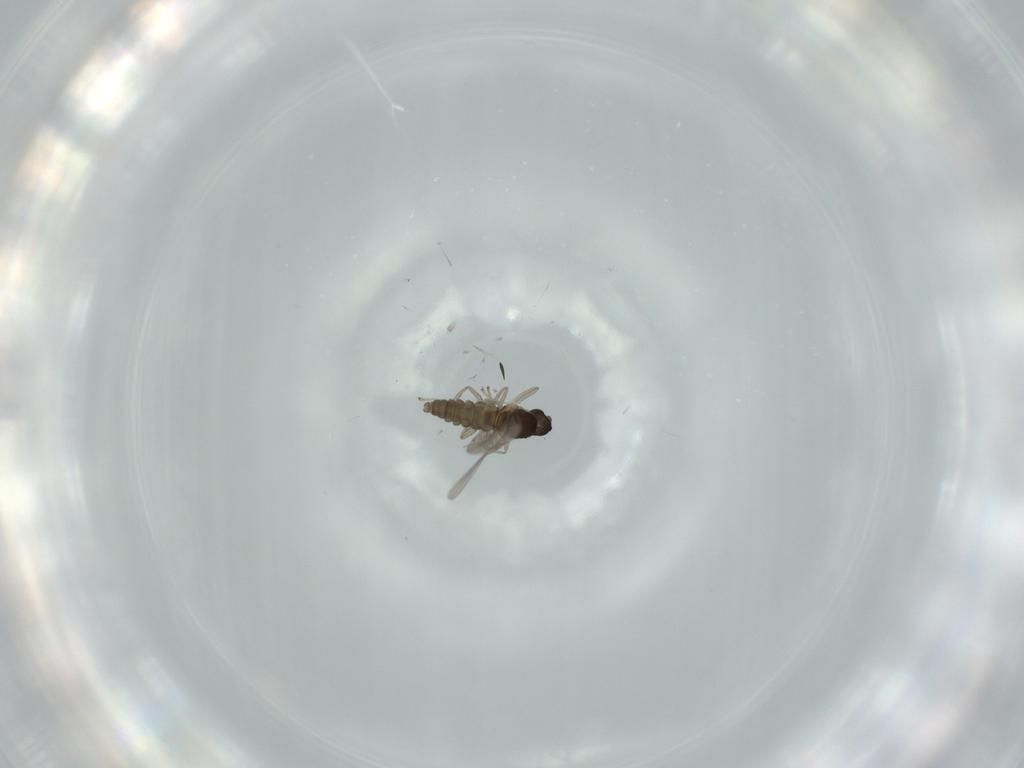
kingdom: Animalia
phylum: Arthropoda
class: Insecta
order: Diptera
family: Cecidomyiidae
